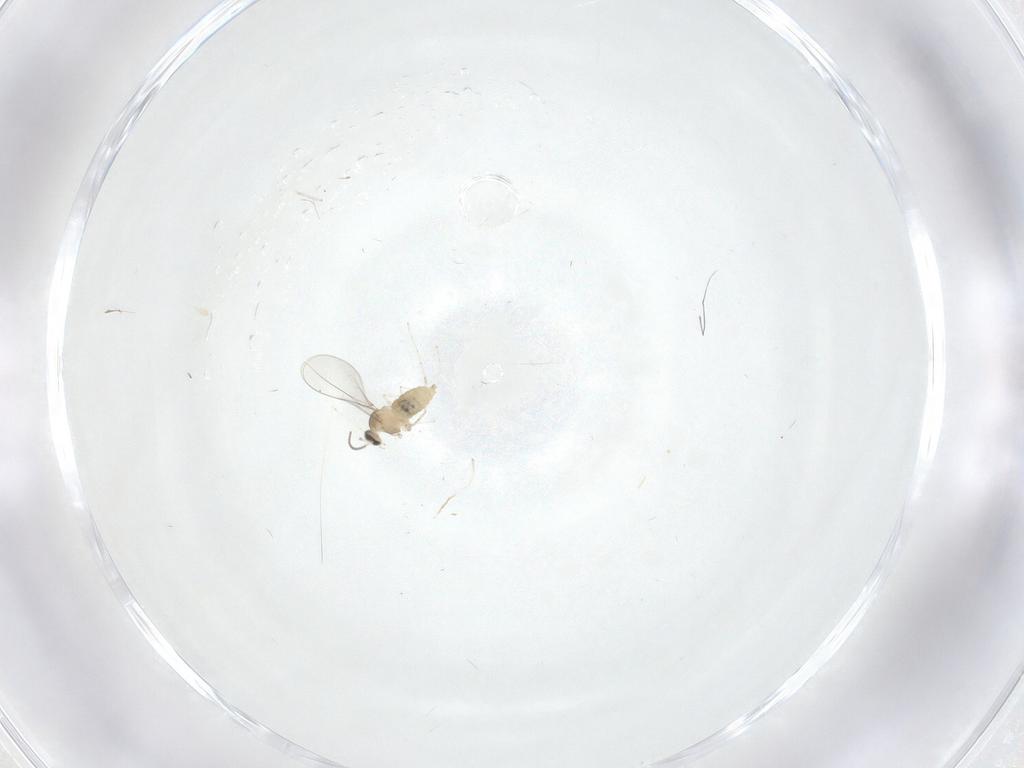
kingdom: Animalia
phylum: Arthropoda
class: Insecta
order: Diptera
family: Cecidomyiidae
